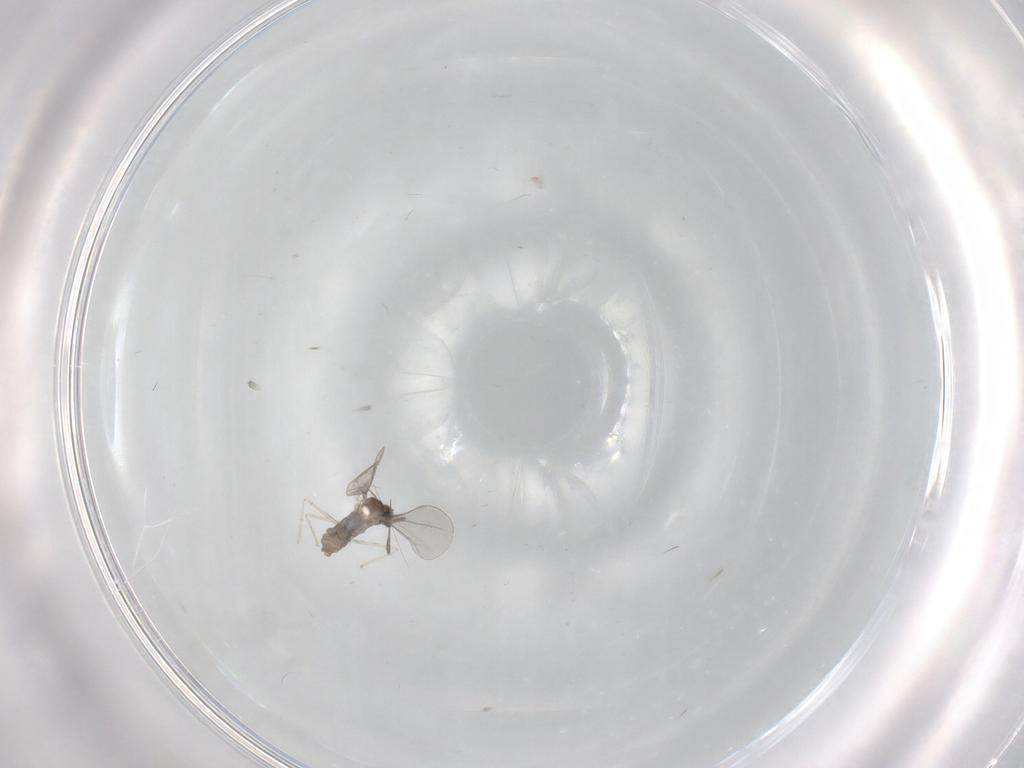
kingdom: Animalia
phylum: Arthropoda
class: Insecta
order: Diptera
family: Cecidomyiidae
